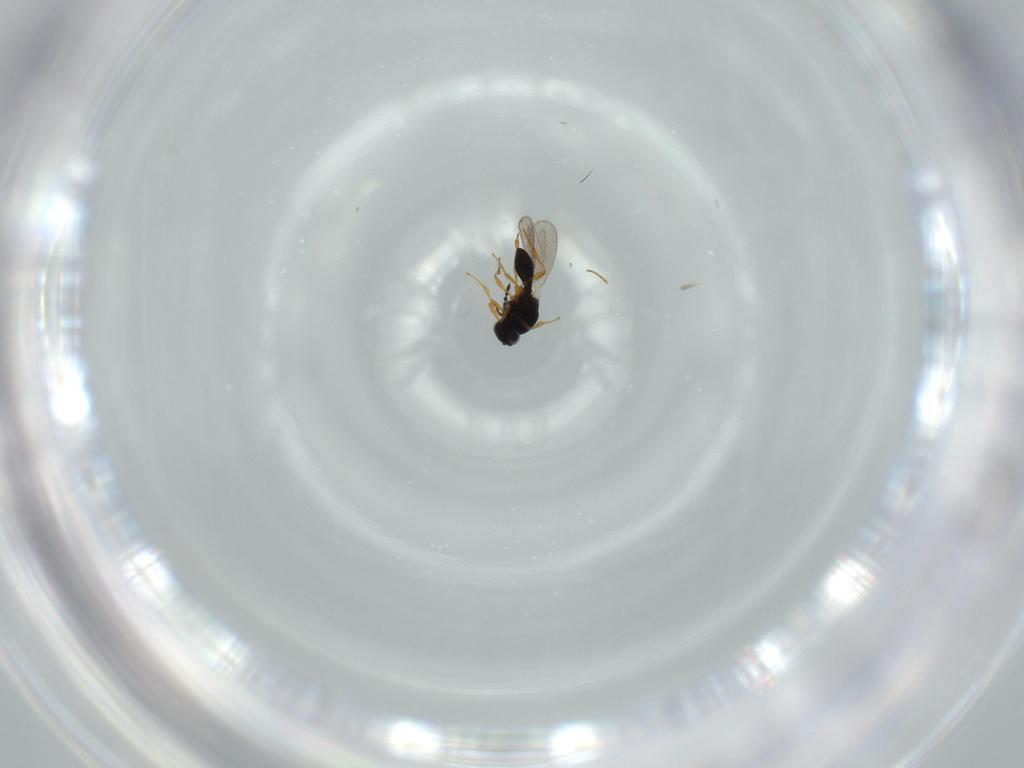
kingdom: Animalia
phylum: Arthropoda
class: Insecta
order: Hymenoptera
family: Platygastridae
